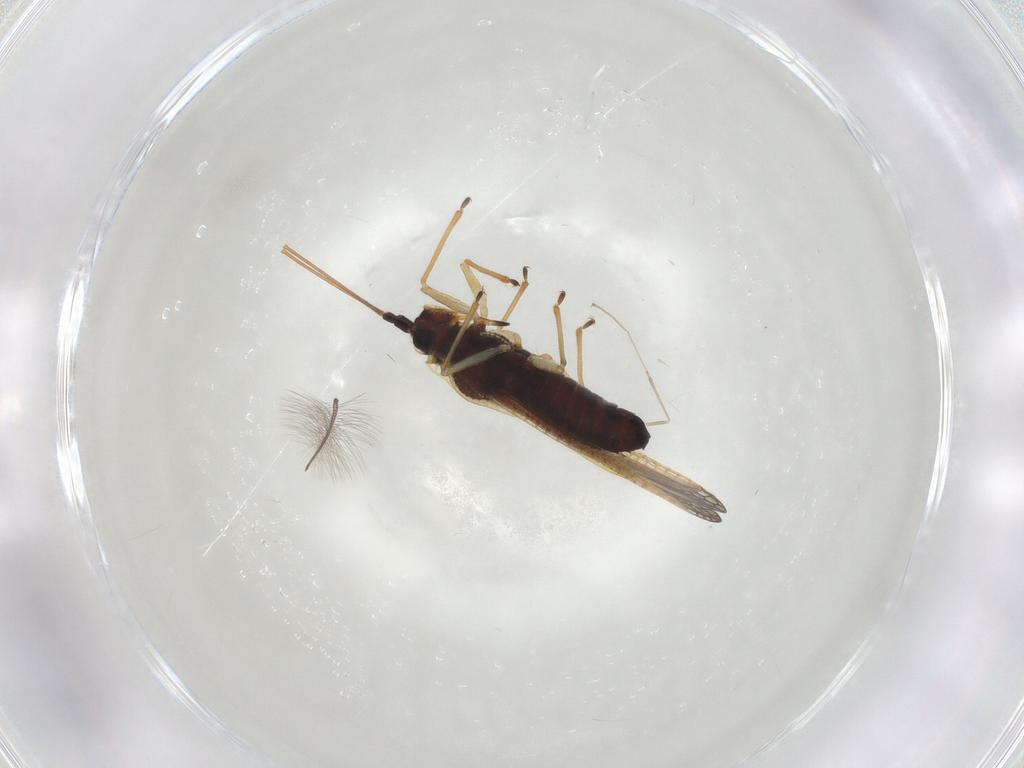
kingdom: Animalia
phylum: Arthropoda
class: Insecta
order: Hemiptera
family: Tingidae
